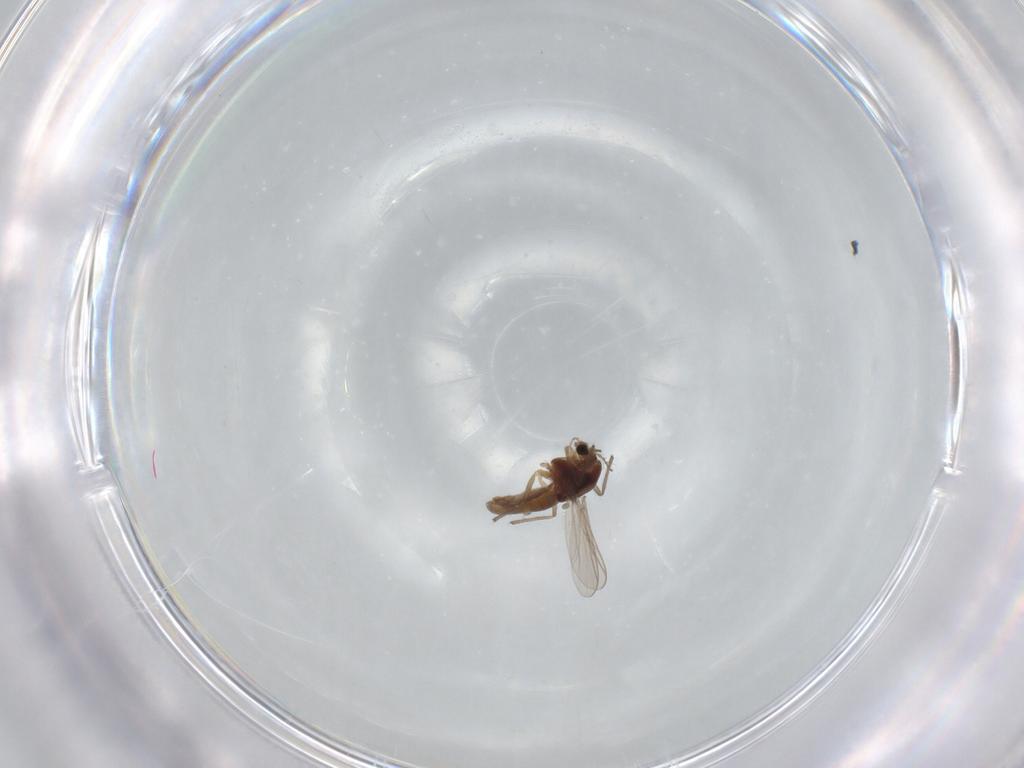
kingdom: Animalia
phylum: Arthropoda
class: Insecta
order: Diptera
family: Chironomidae
